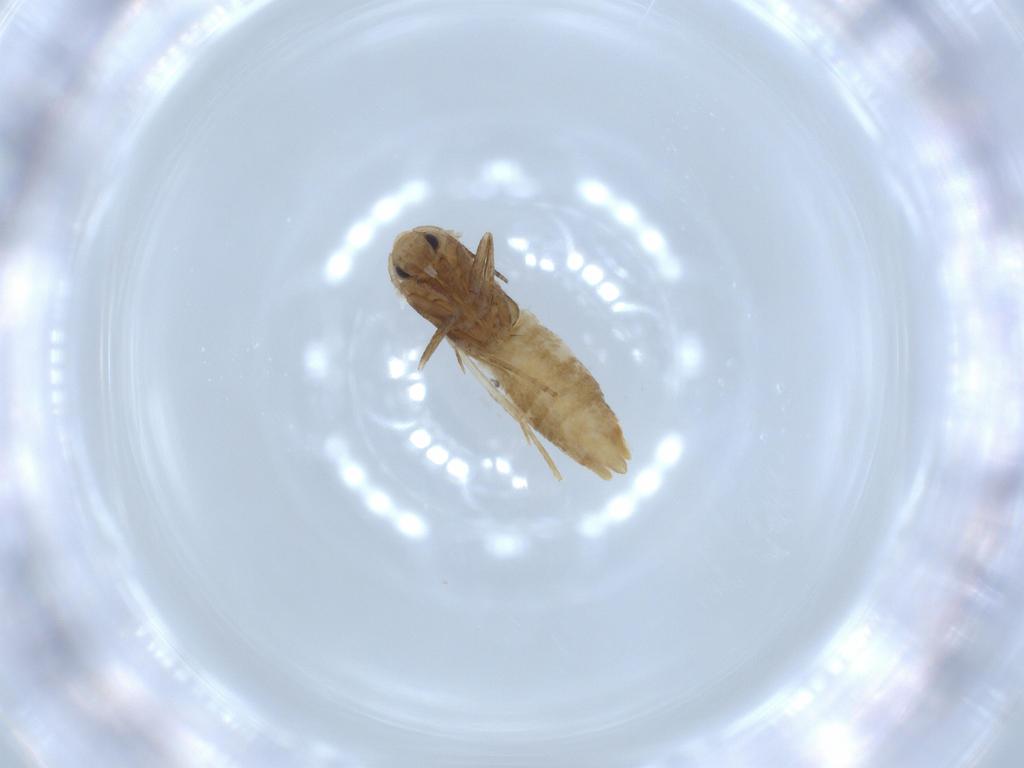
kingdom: Animalia
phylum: Arthropoda
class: Insecta
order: Lepidoptera
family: Bucculatricidae
